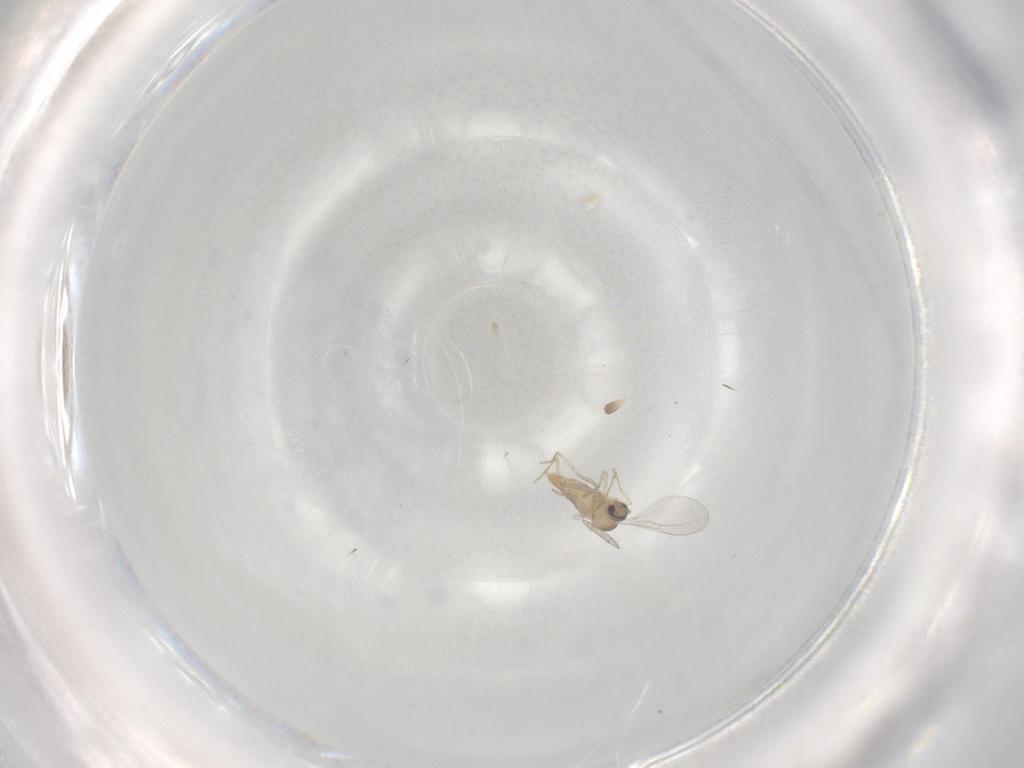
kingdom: Animalia
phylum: Arthropoda
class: Insecta
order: Diptera
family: Cecidomyiidae
